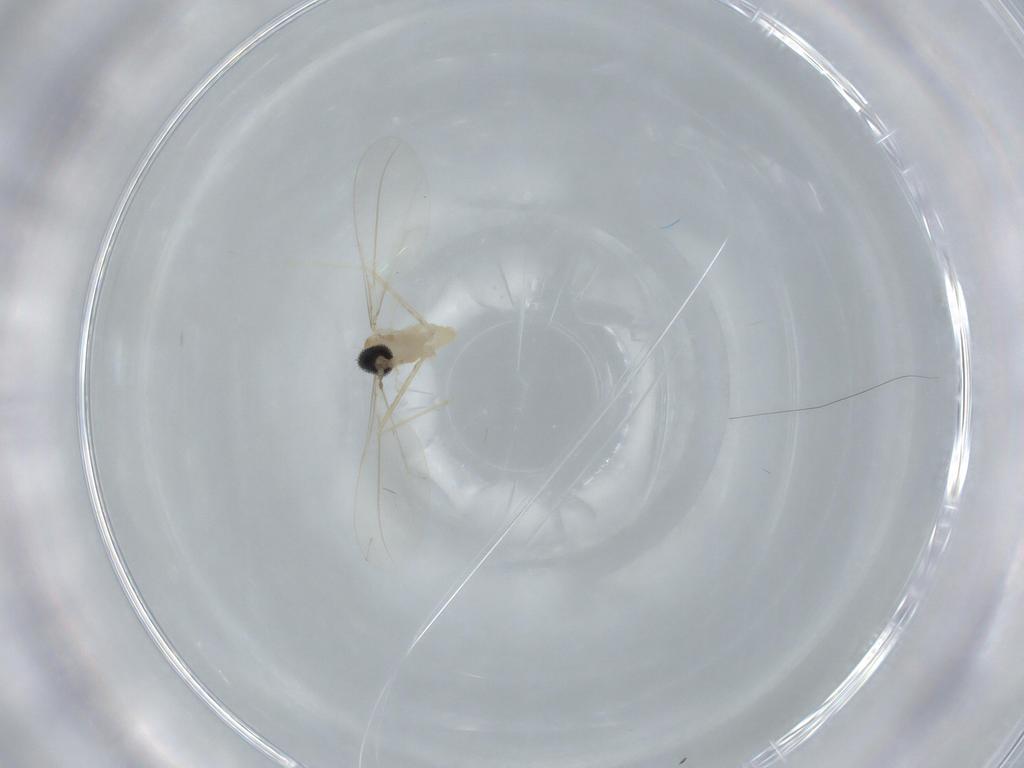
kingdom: Animalia
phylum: Arthropoda
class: Insecta
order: Diptera
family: Cecidomyiidae
